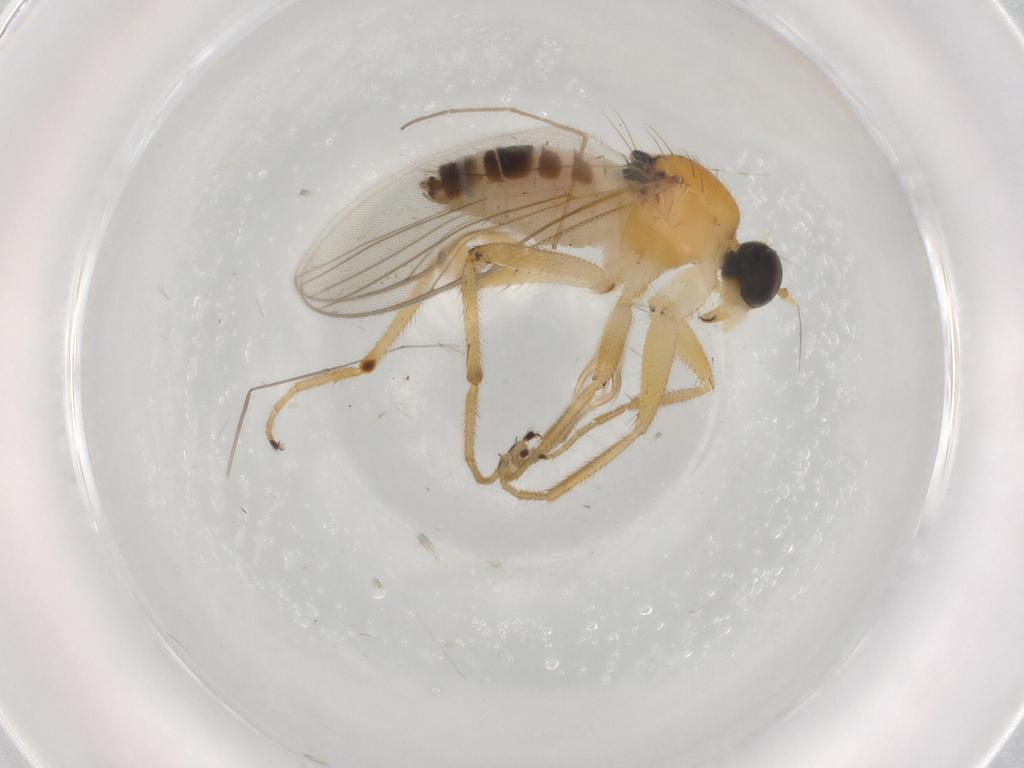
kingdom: Animalia
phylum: Arthropoda
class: Insecta
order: Diptera
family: Hybotidae
